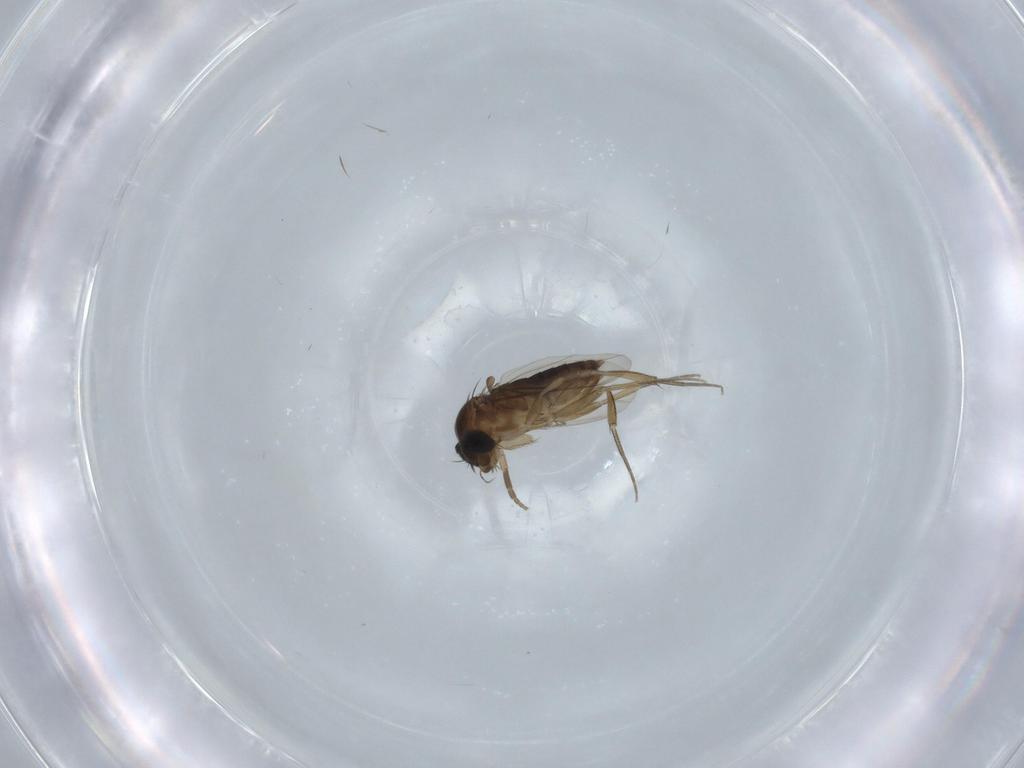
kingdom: Animalia
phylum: Arthropoda
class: Insecta
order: Diptera
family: Phoridae
